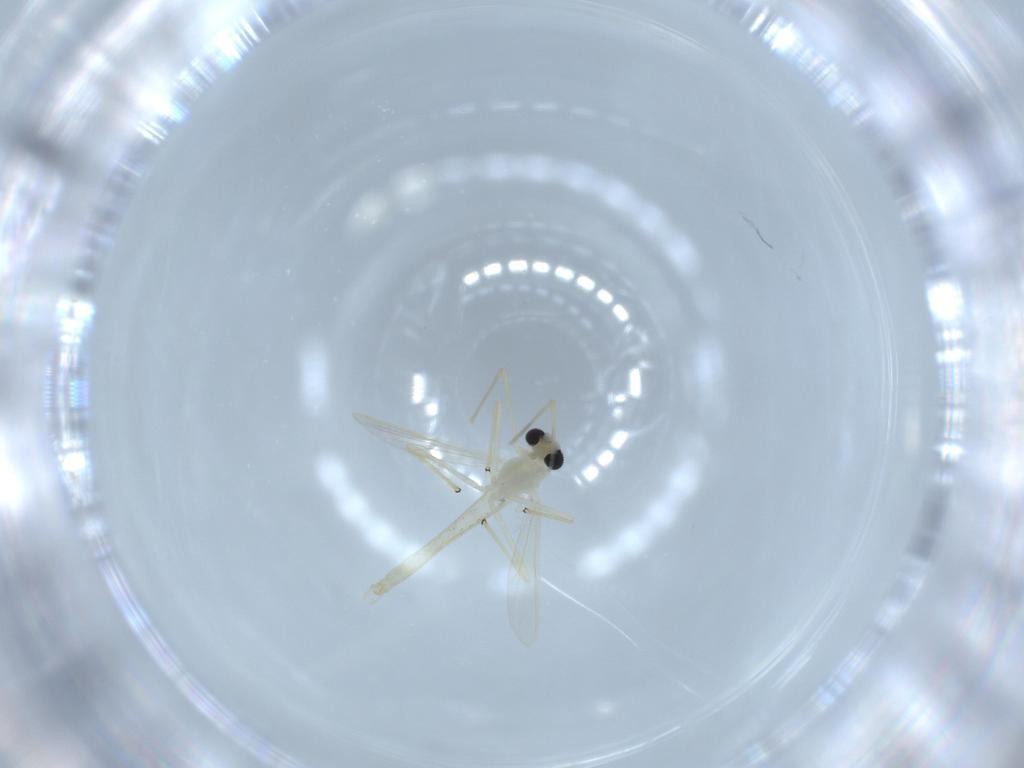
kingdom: Animalia
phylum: Arthropoda
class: Insecta
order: Diptera
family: Chironomidae
